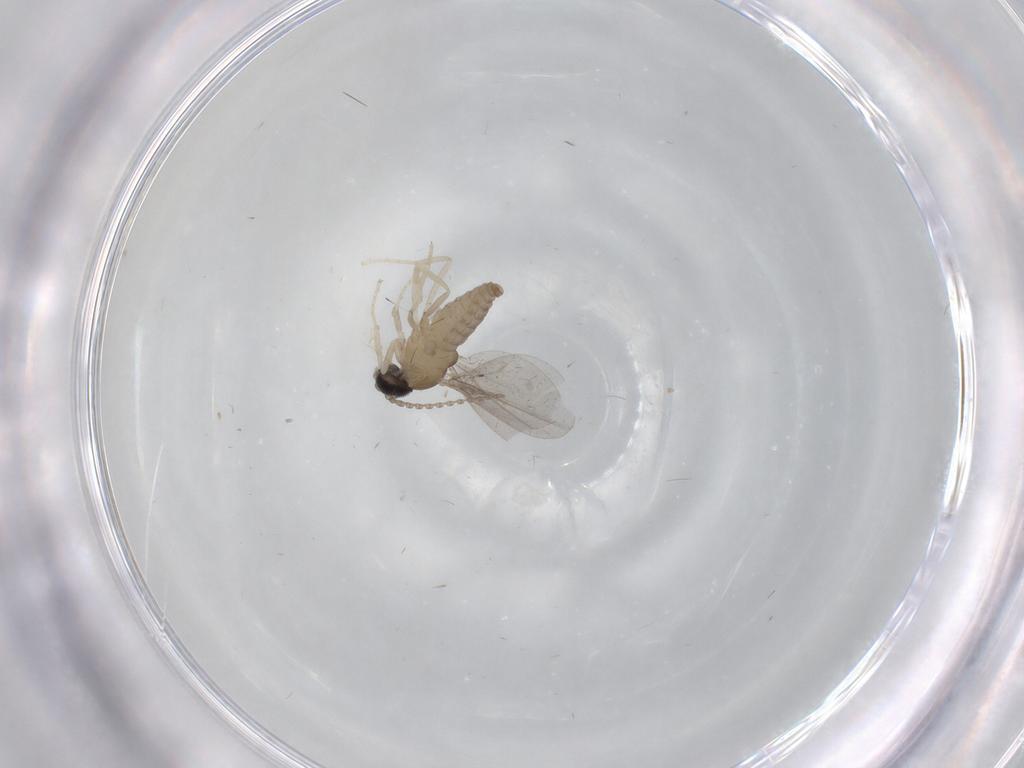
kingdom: Animalia
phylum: Arthropoda
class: Insecta
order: Diptera
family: Cecidomyiidae
